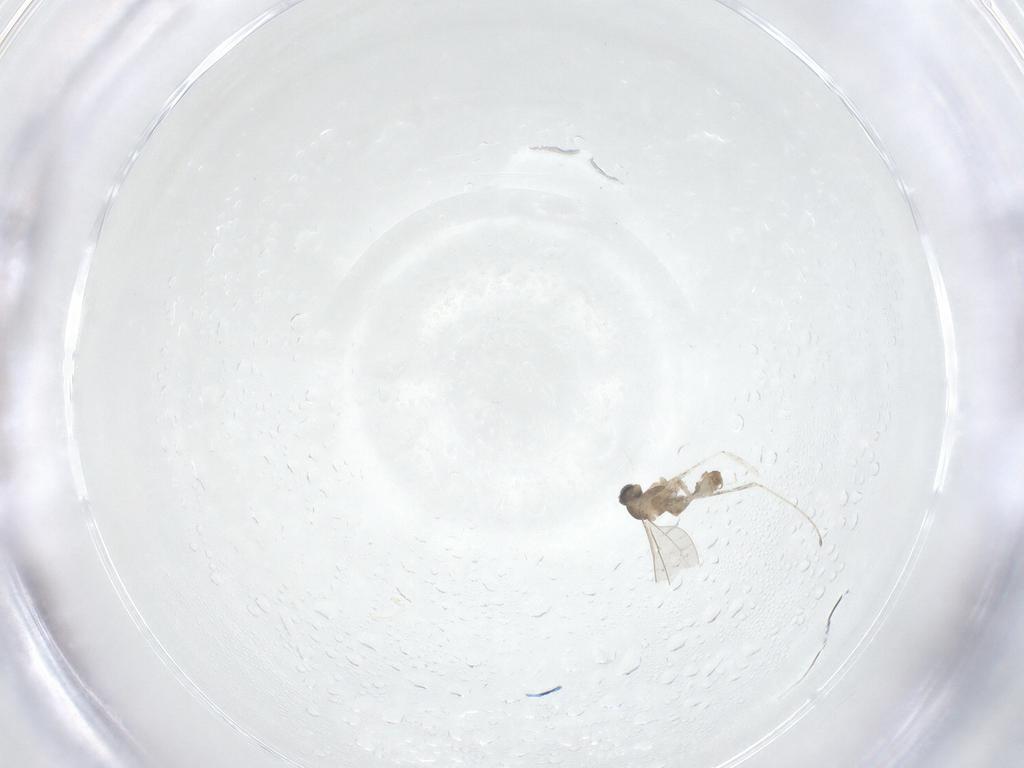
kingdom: Animalia
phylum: Arthropoda
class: Insecta
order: Diptera
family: Cecidomyiidae
